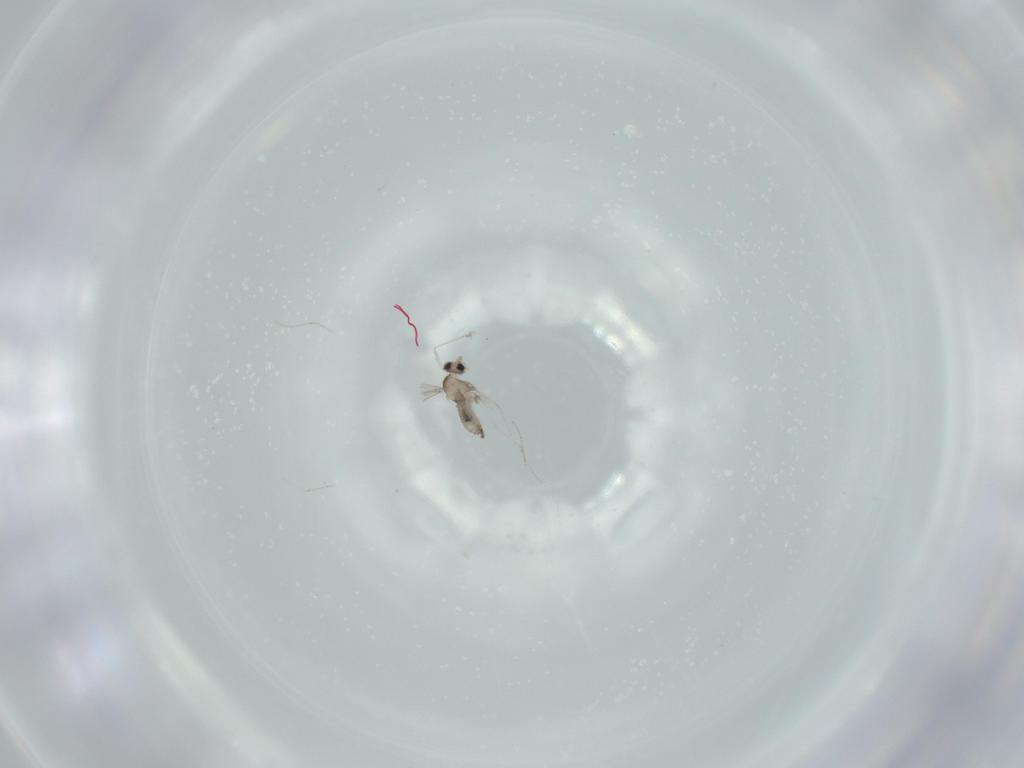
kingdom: Animalia
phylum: Arthropoda
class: Insecta
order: Diptera
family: Cecidomyiidae
